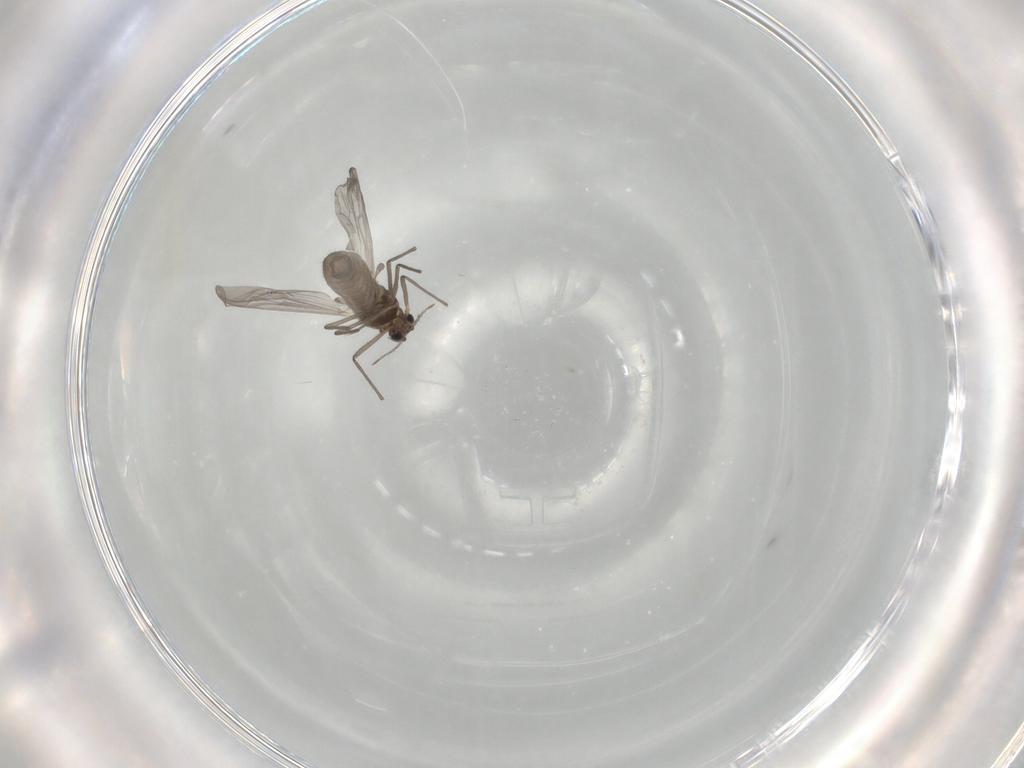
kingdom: Animalia
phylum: Arthropoda
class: Insecta
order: Diptera
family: Chironomidae
